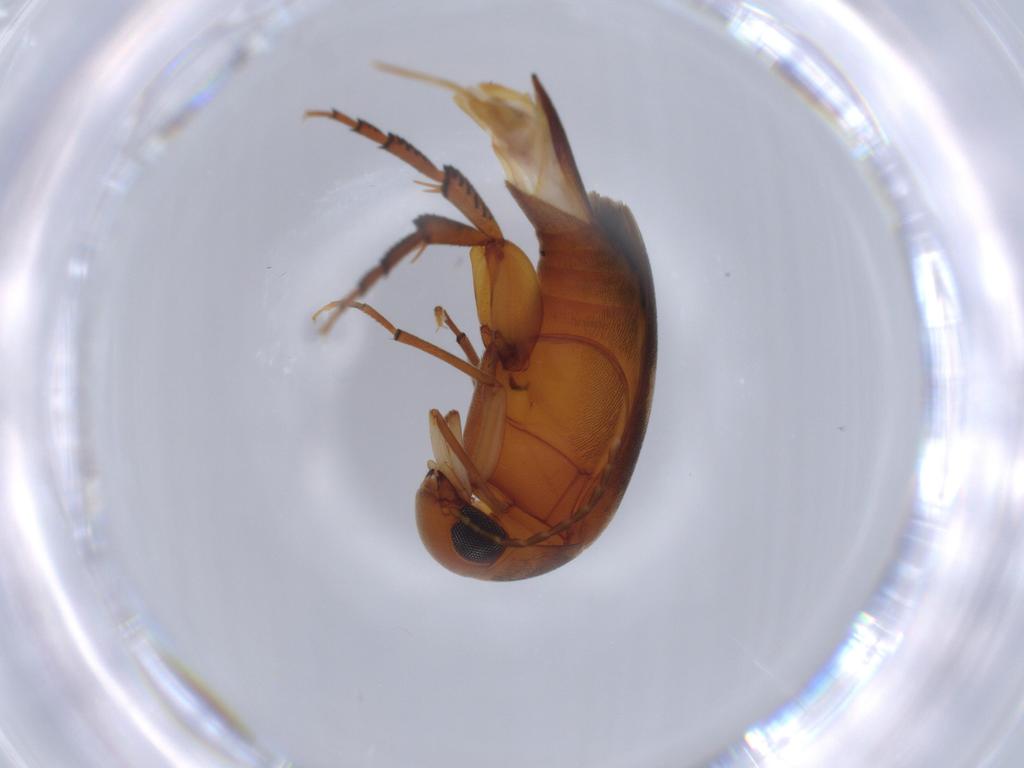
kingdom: Animalia
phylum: Arthropoda
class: Insecta
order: Coleoptera
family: Mordellidae
